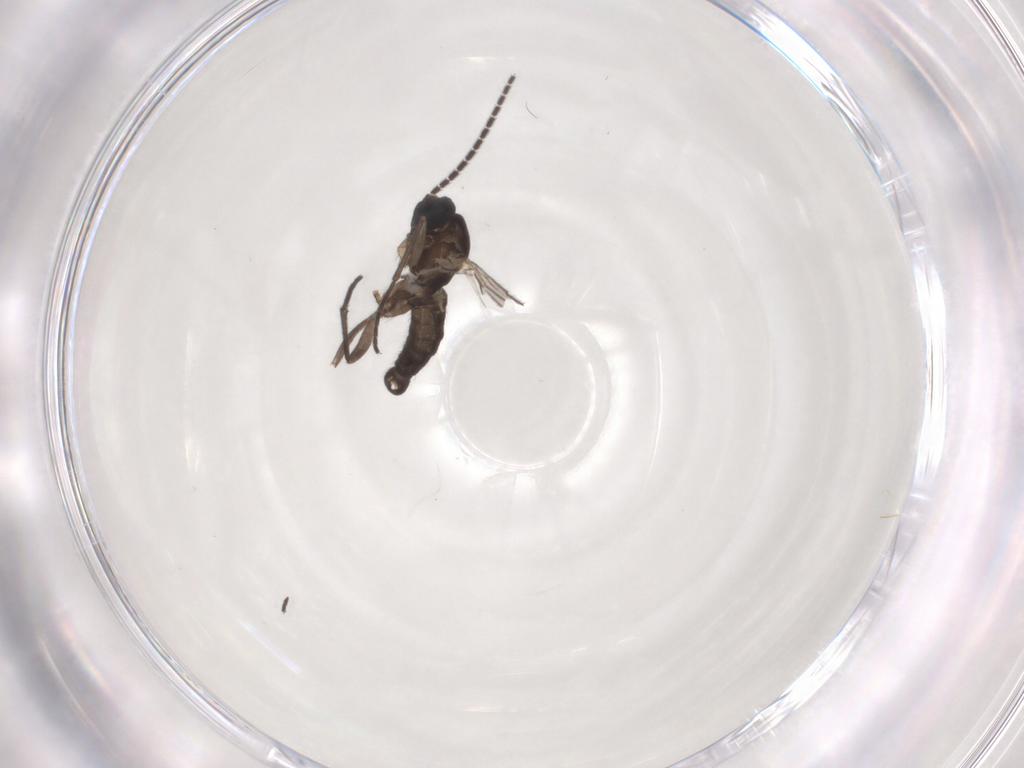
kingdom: Animalia
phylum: Arthropoda
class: Insecta
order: Diptera
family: Sciaridae
